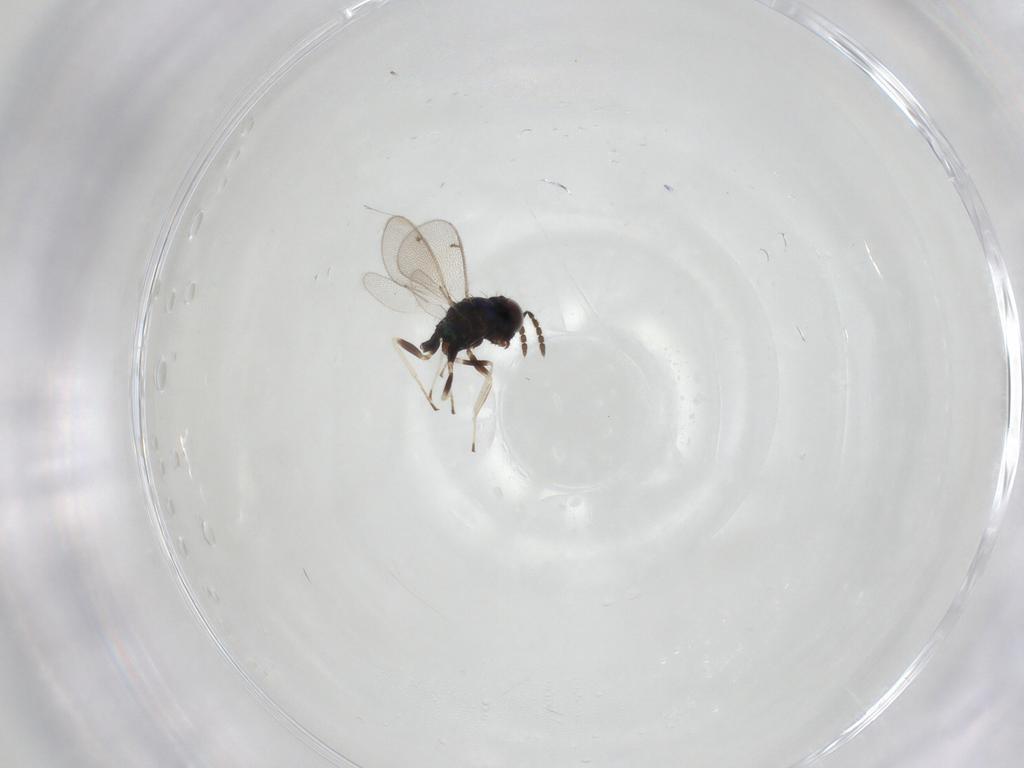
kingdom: Animalia
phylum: Arthropoda
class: Insecta
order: Hymenoptera
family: Eulophidae
